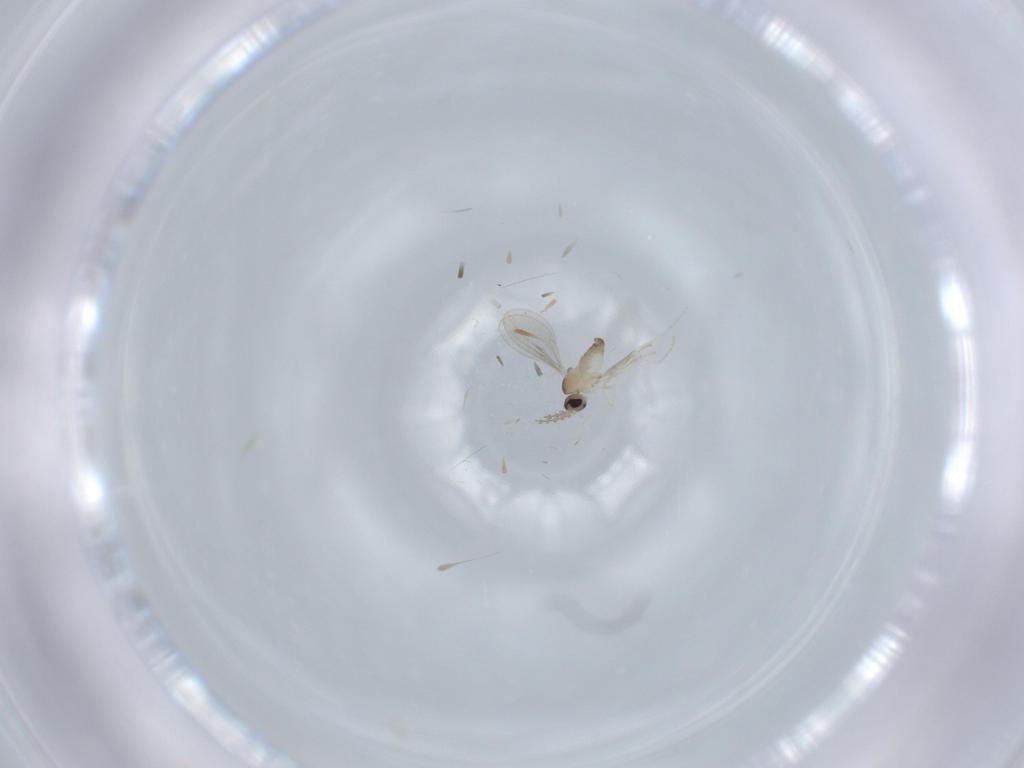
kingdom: Animalia
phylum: Arthropoda
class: Insecta
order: Diptera
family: Cecidomyiidae
